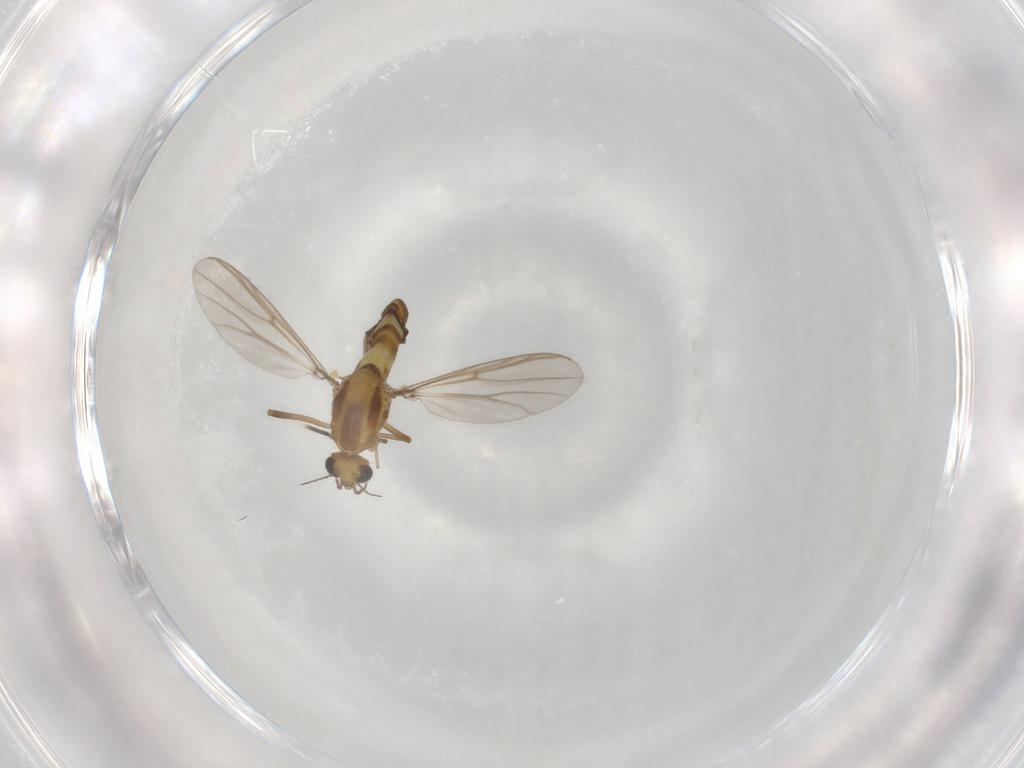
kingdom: Animalia
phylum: Arthropoda
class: Insecta
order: Diptera
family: Chironomidae
